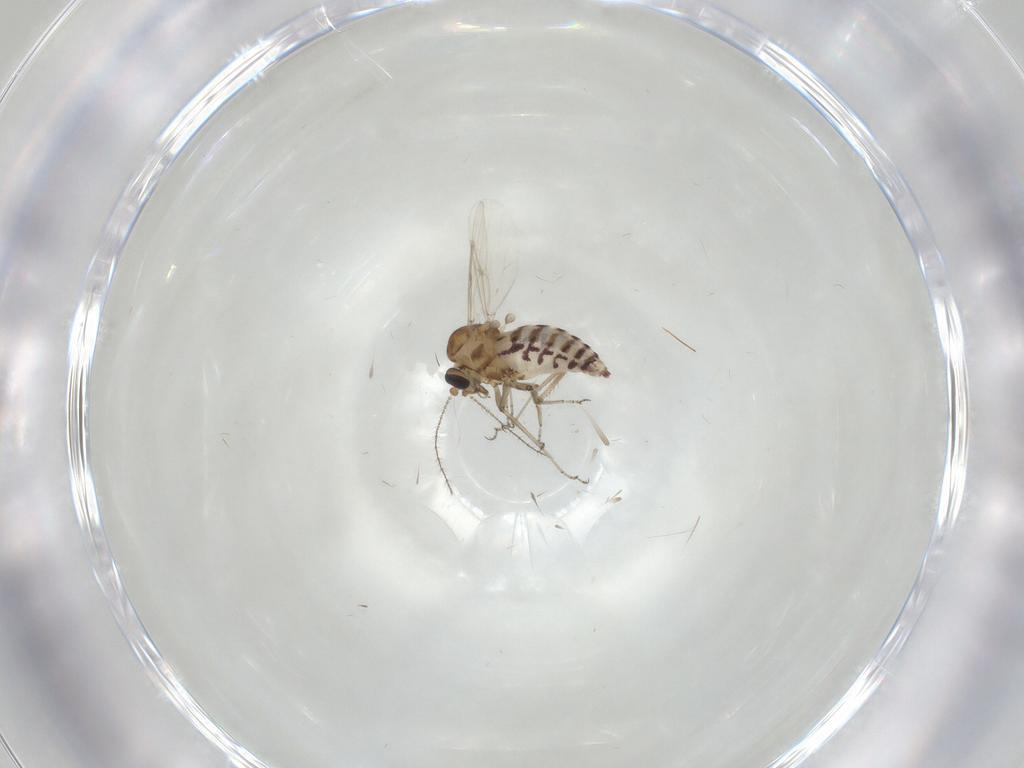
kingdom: Animalia
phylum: Arthropoda
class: Insecta
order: Diptera
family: Ceratopogonidae
